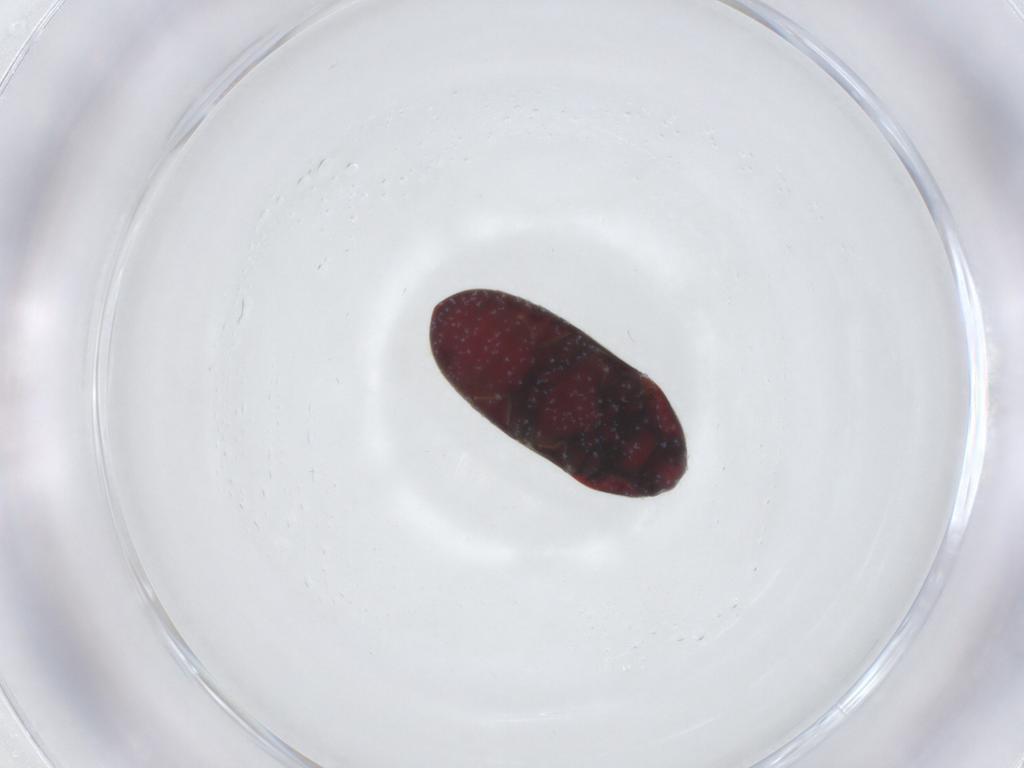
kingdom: Animalia
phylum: Arthropoda
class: Insecta
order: Coleoptera
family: Throscidae
